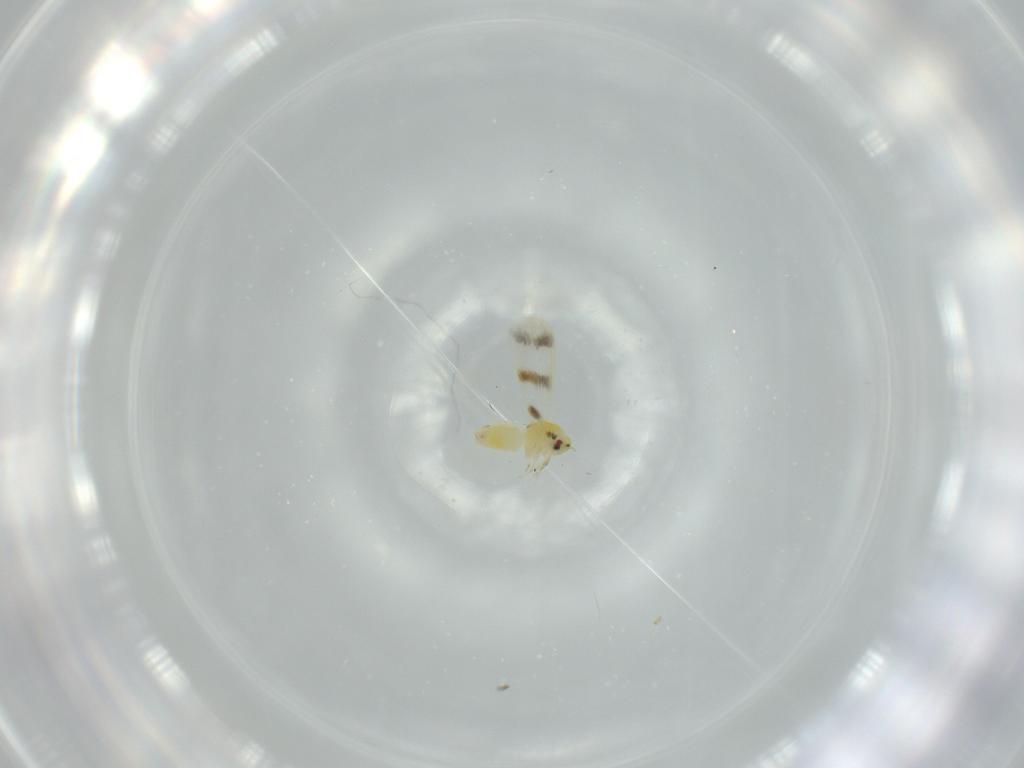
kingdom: Animalia
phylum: Arthropoda
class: Insecta
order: Hemiptera
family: Aleyrodidae
